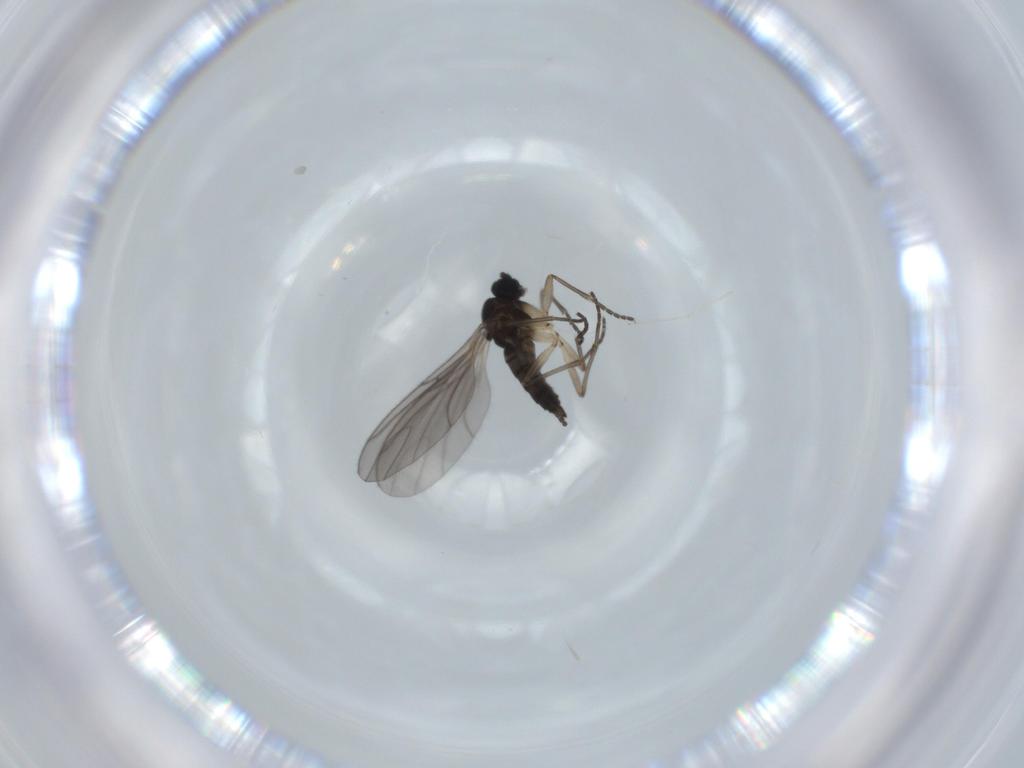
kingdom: Animalia
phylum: Arthropoda
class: Insecta
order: Diptera
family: Sciaridae
